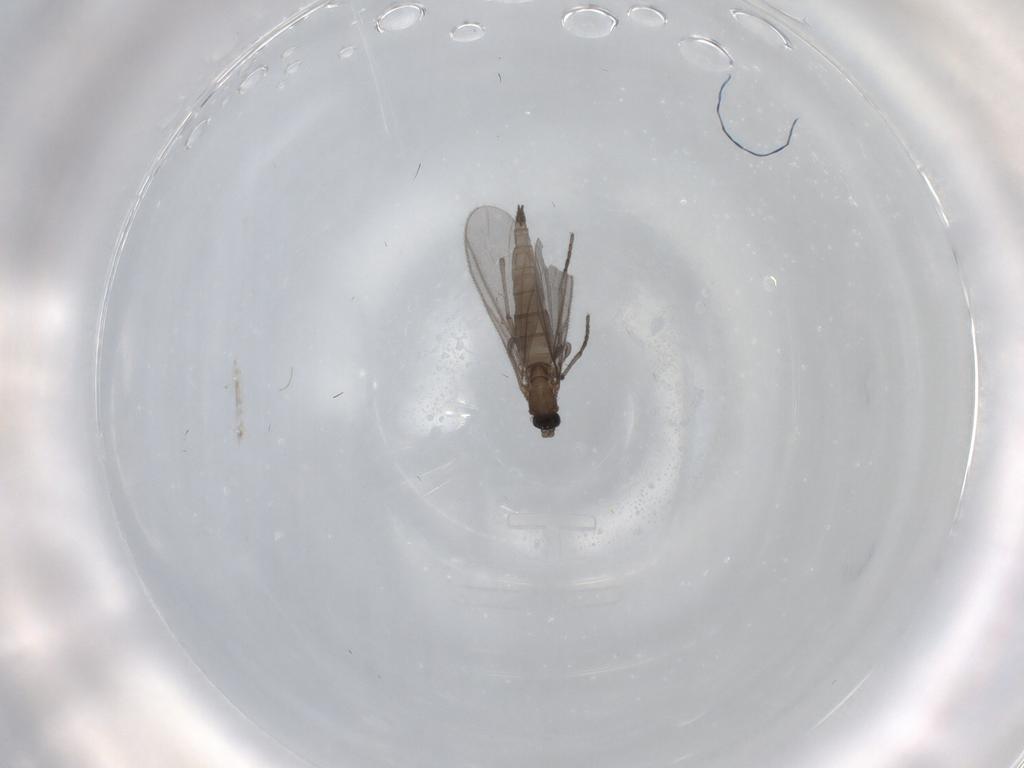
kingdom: Animalia
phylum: Arthropoda
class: Insecta
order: Diptera
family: Sciaridae
